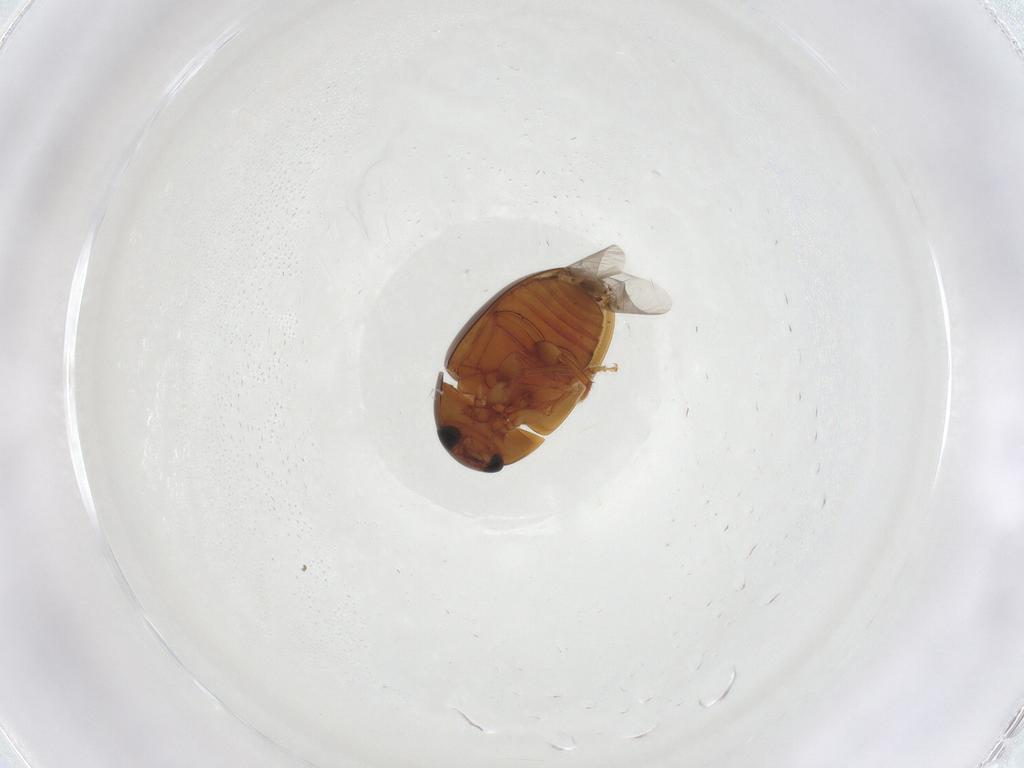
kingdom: Animalia
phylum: Arthropoda
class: Insecta
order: Coleoptera
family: Phalacridae
